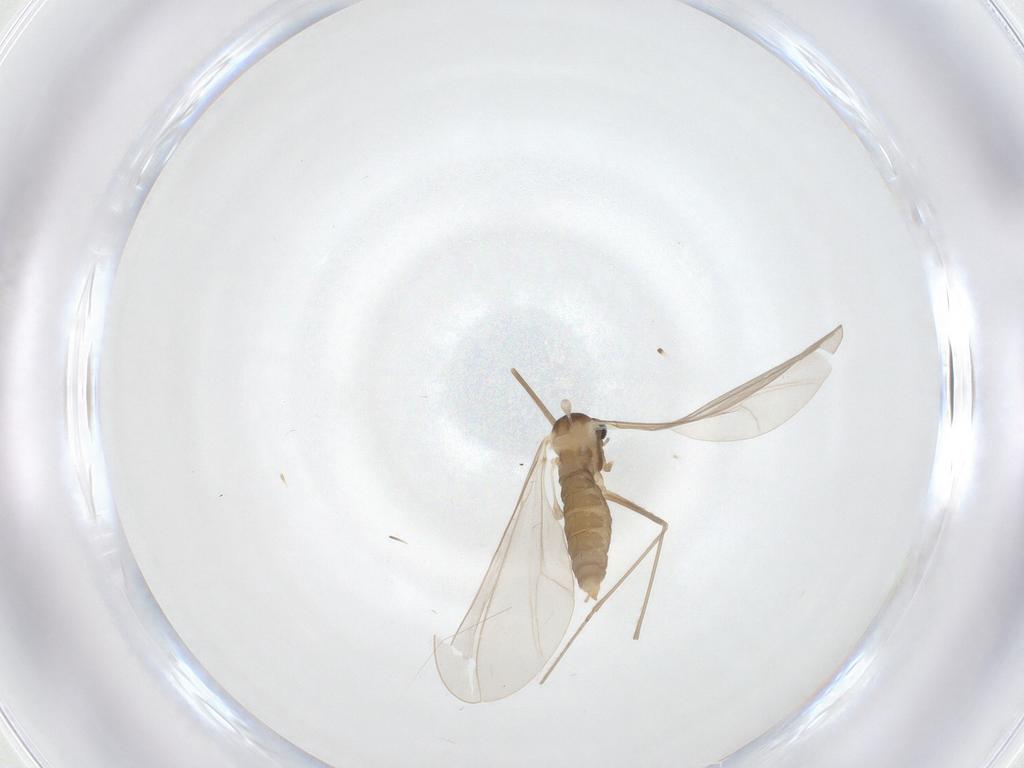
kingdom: Animalia
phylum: Arthropoda
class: Insecta
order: Diptera
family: Cecidomyiidae
